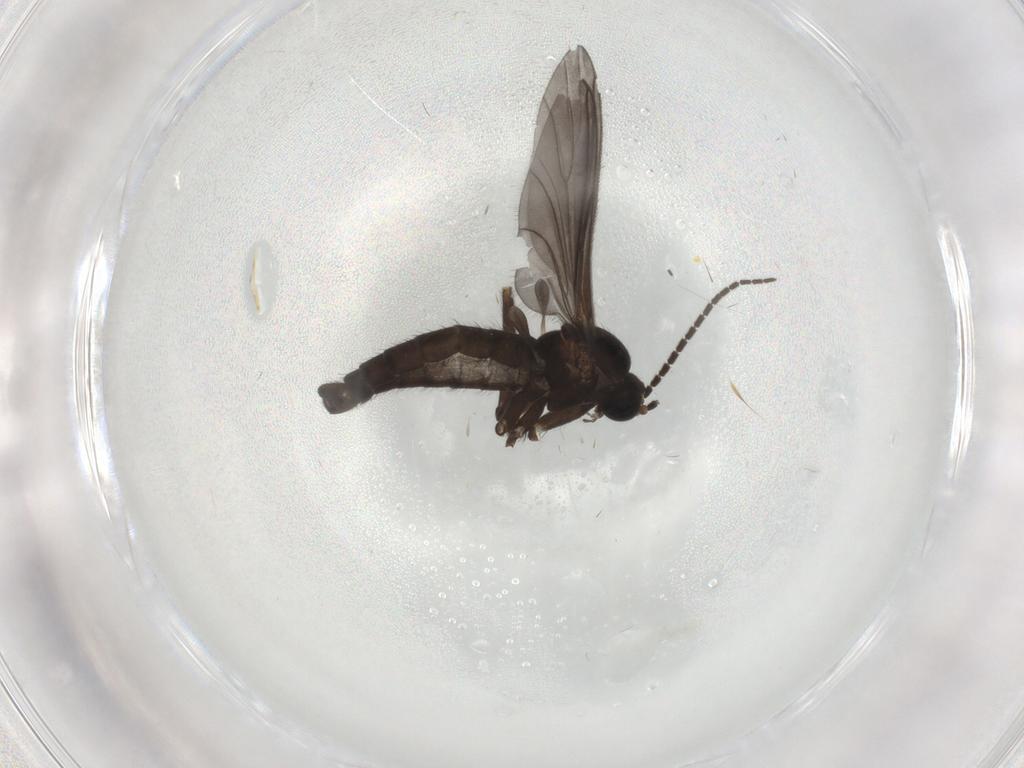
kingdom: Animalia
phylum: Arthropoda
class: Insecta
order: Diptera
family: Sciaridae
